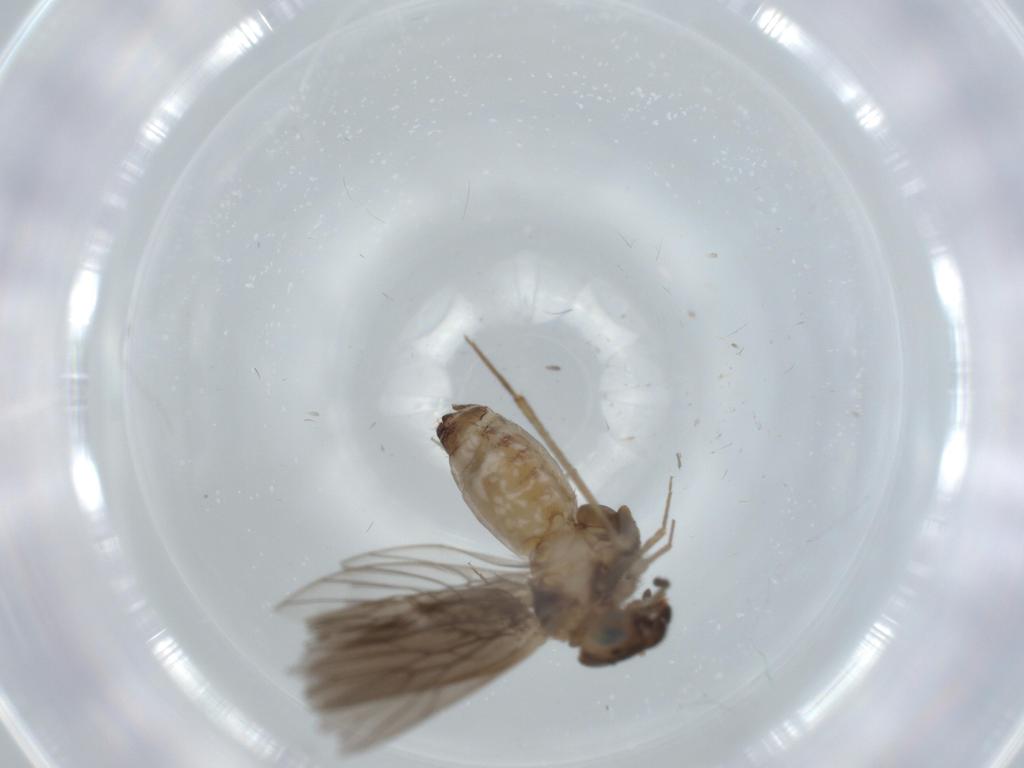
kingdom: Animalia
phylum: Arthropoda
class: Insecta
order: Psocodea
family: Lepidopsocidae
